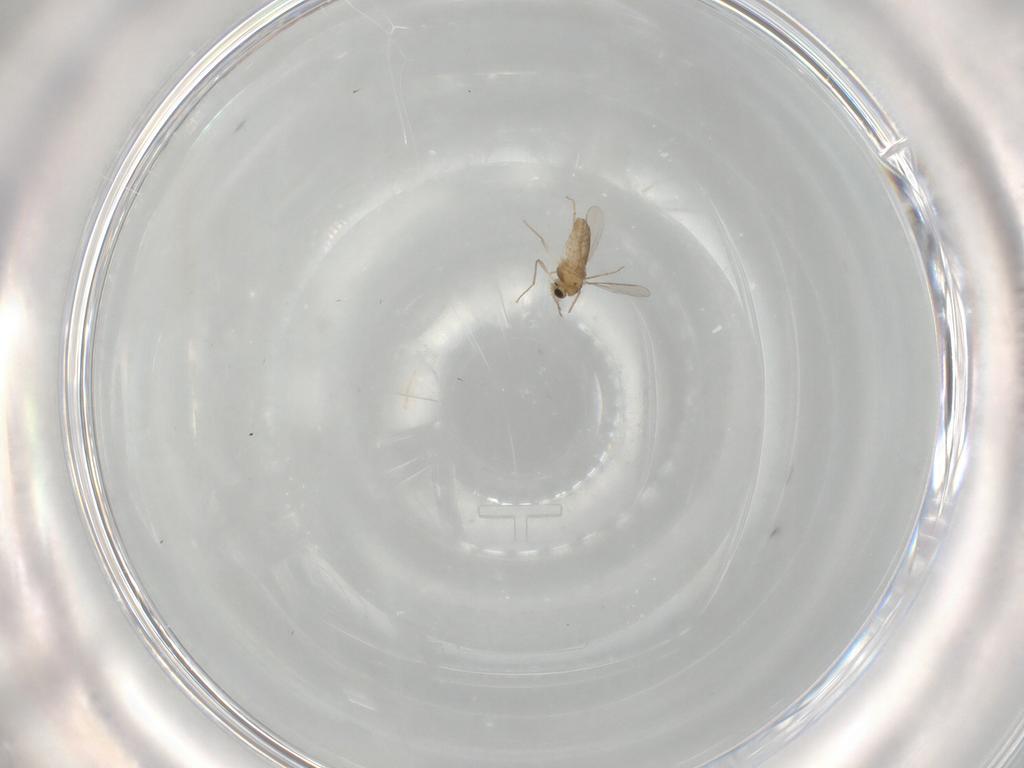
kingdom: Animalia
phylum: Arthropoda
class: Insecta
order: Diptera
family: Chironomidae
